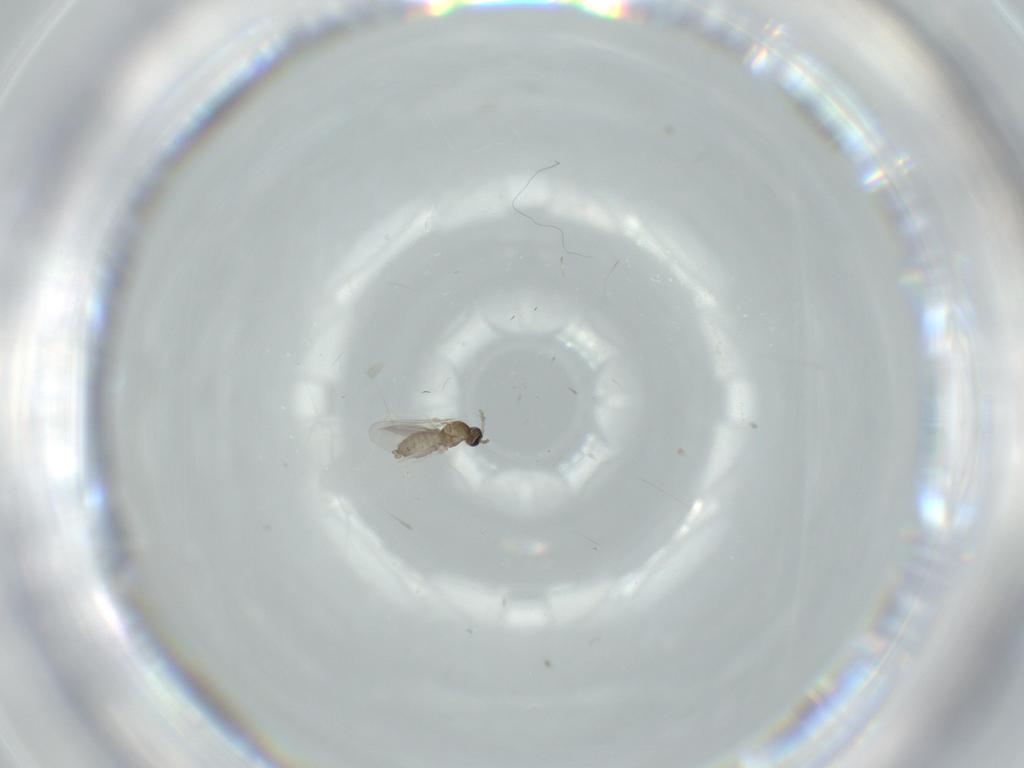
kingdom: Animalia
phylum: Arthropoda
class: Insecta
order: Diptera
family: Cecidomyiidae
